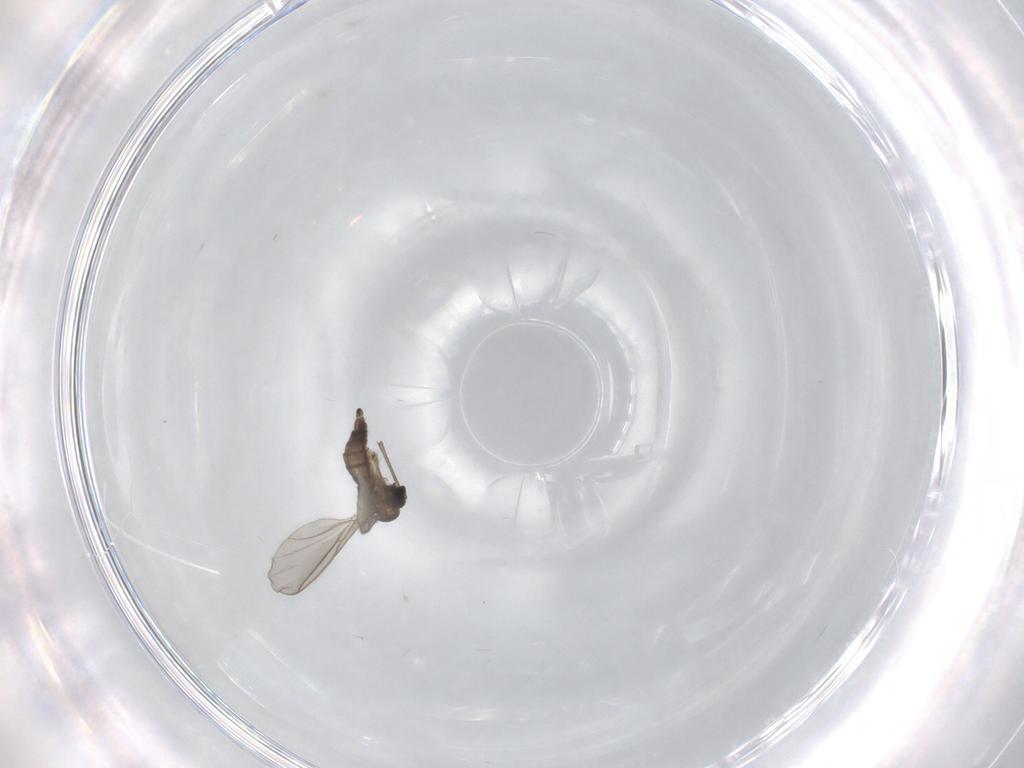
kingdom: Animalia
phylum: Arthropoda
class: Insecta
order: Diptera
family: Sciaridae
